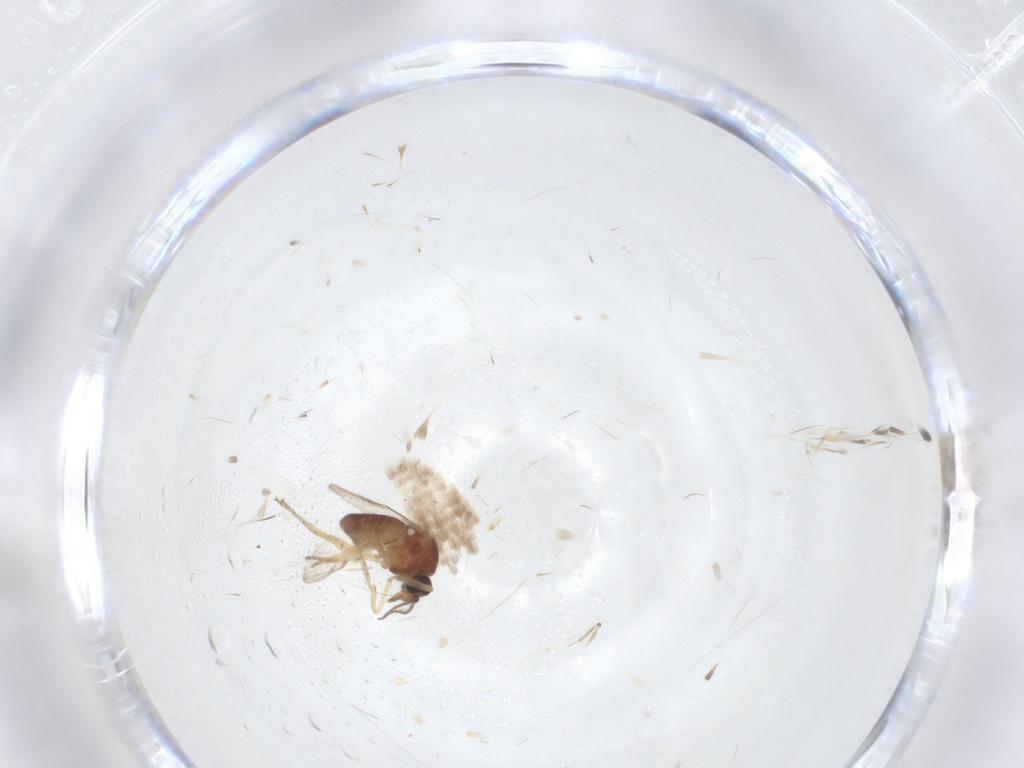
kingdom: Animalia
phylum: Arthropoda
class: Insecta
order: Diptera
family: Ceratopogonidae
